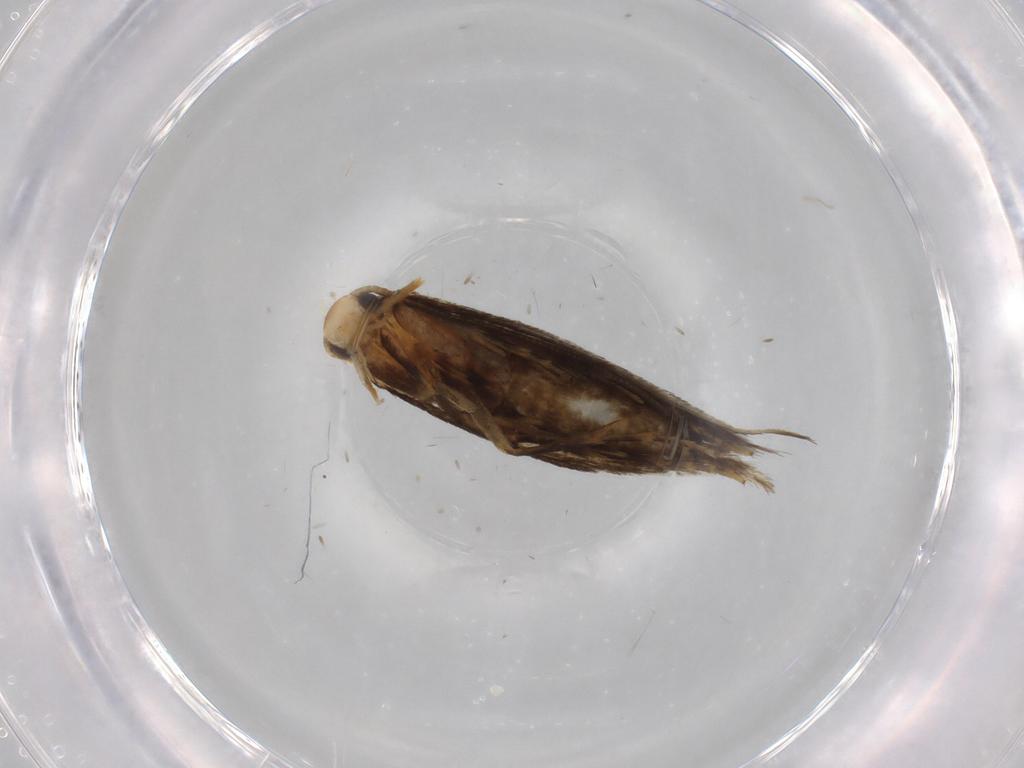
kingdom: Animalia
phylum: Arthropoda
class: Insecta
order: Lepidoptera
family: Tineidae
